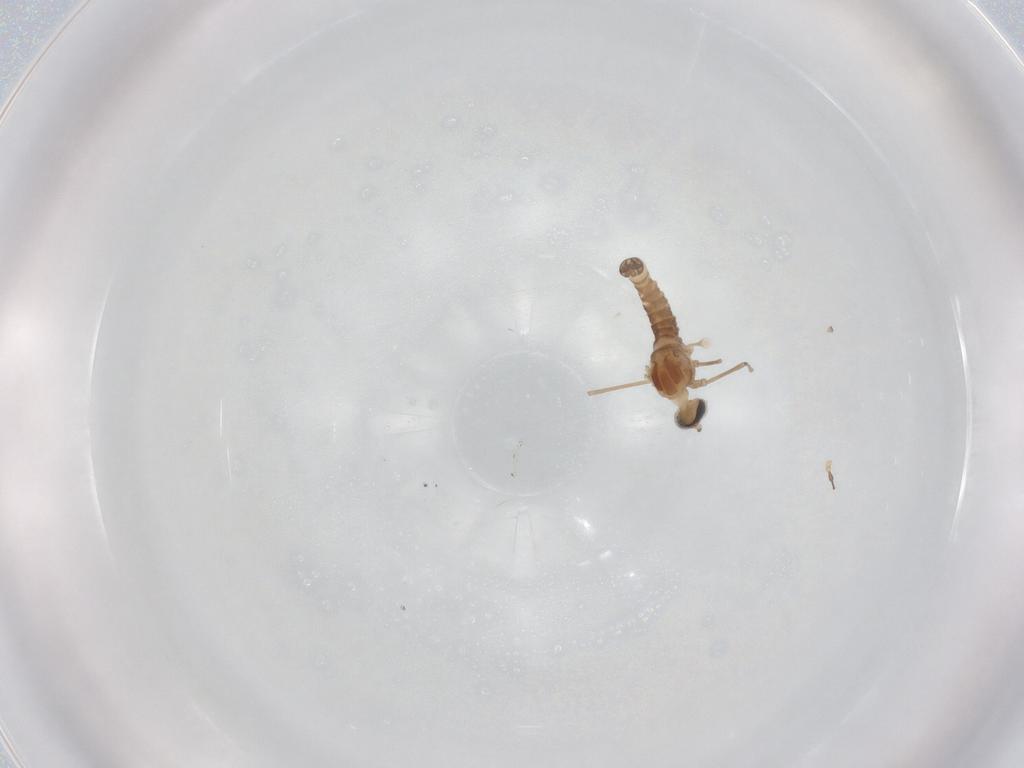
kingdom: Animalia
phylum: Arthropoda
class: Insecta
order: Diptera
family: Cecidomyiidae
